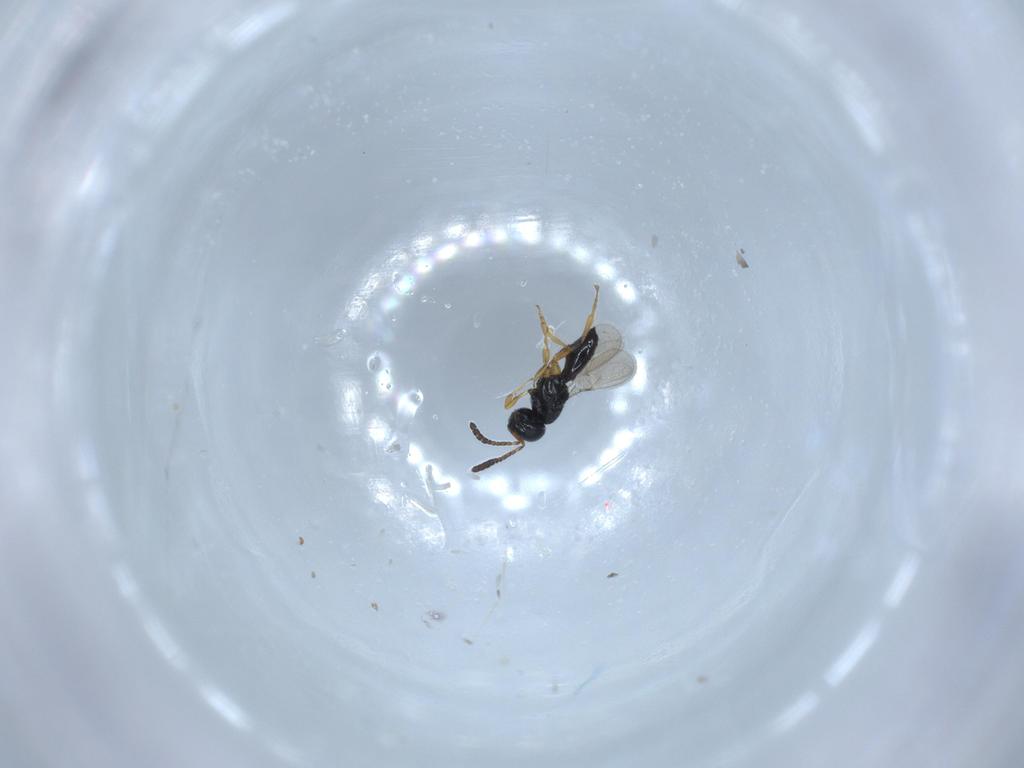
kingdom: Animalia
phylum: Arthropoda
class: Insecta
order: Hymenoptera
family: Scelionidae
